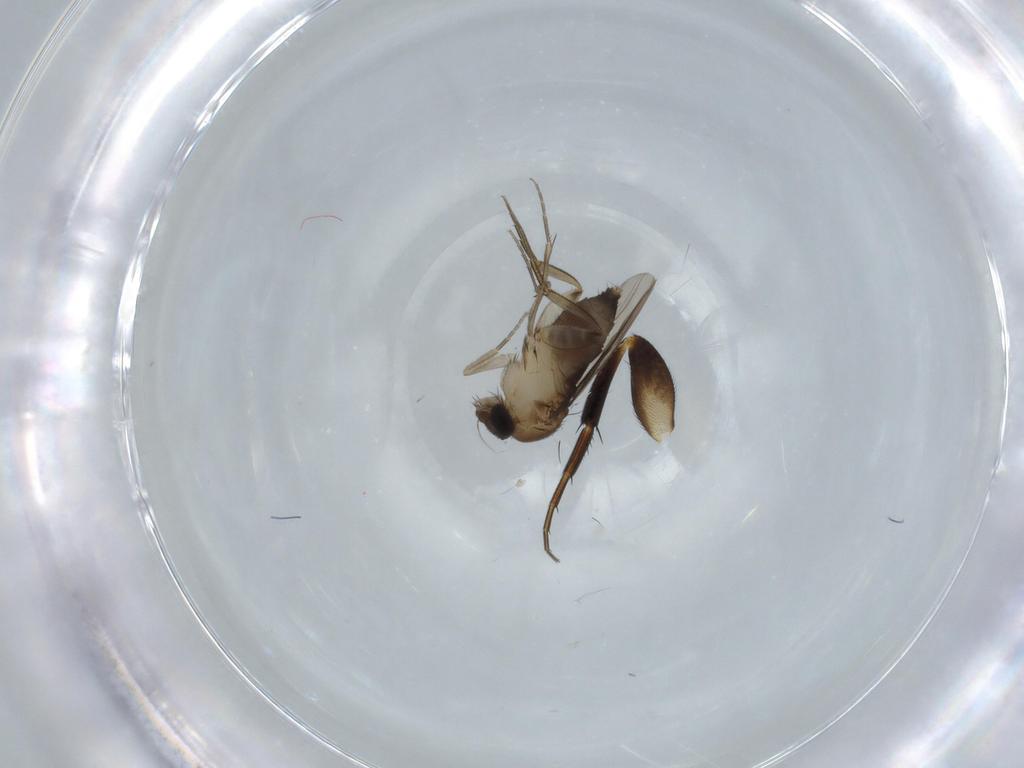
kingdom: Animalia
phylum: Arthropoda
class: Insecta
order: Diptera
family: Phoridae
